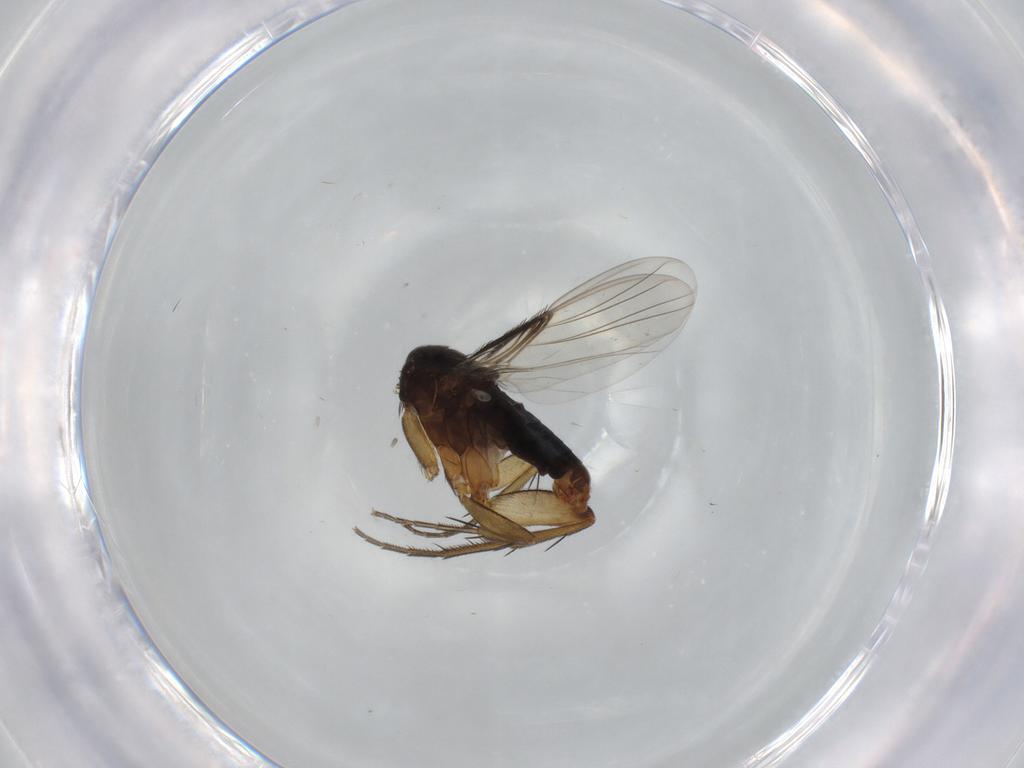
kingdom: Animalia
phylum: Arthropoda
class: Insecta
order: Diptera
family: Phoridae
